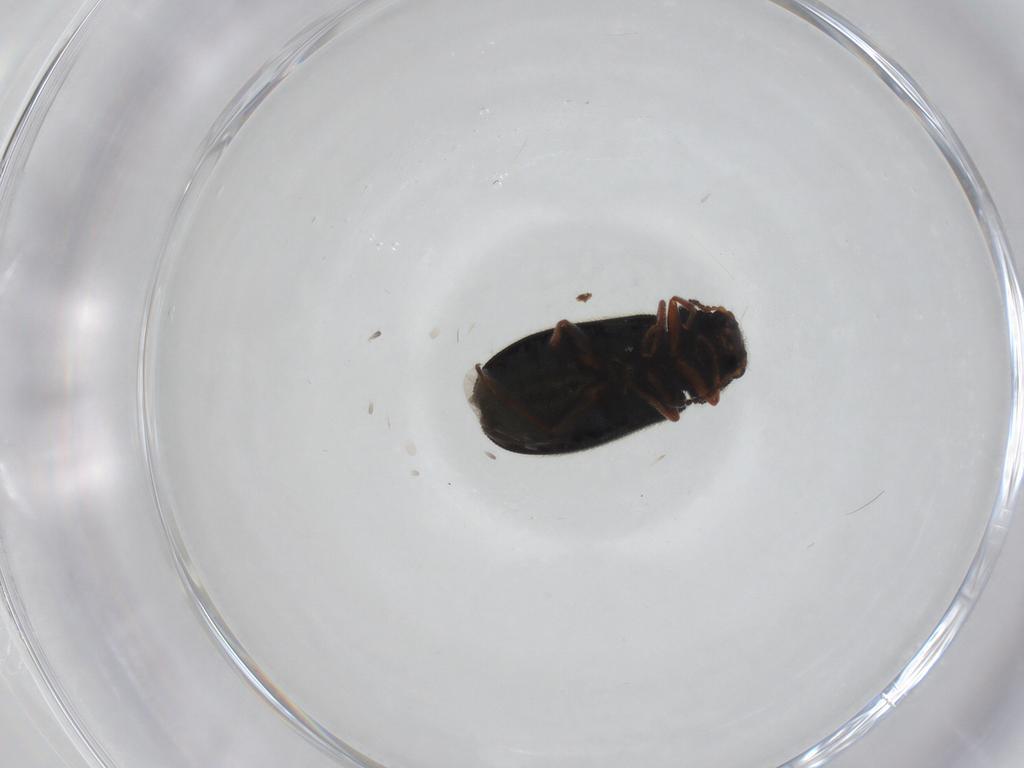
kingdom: Animalia
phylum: Arthropoda
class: Insecta
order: Coleoptera
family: Melyridae
